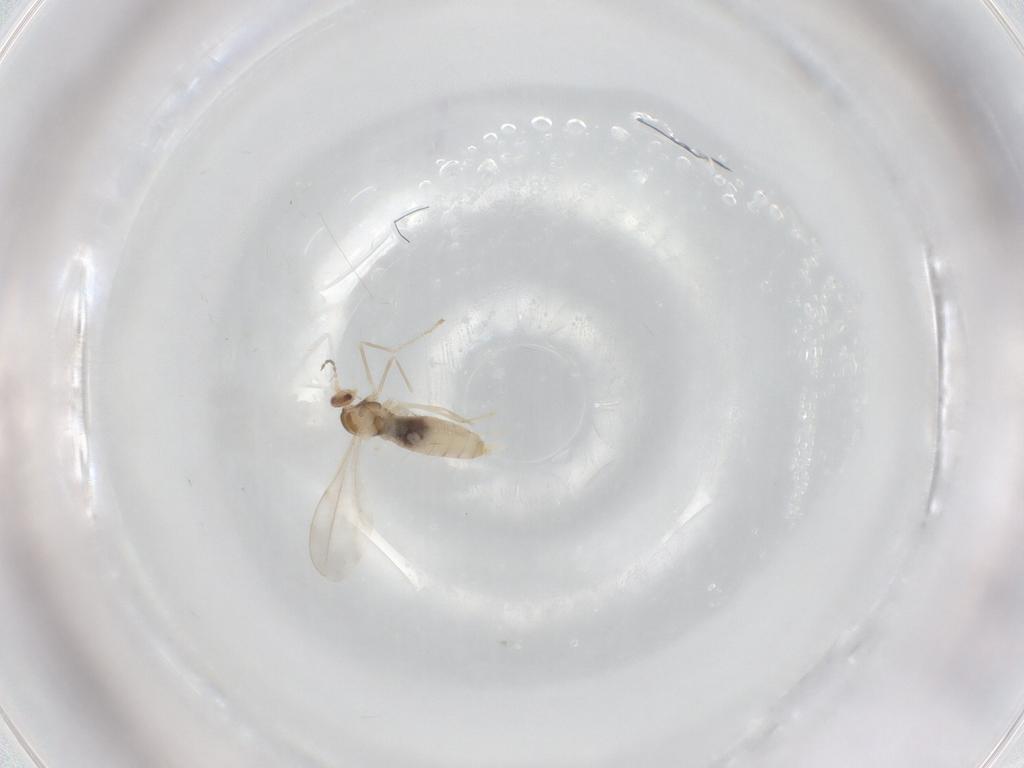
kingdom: Animalia
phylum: Arthropoda
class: Insecta
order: Diptera
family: Cecidomyiidae
